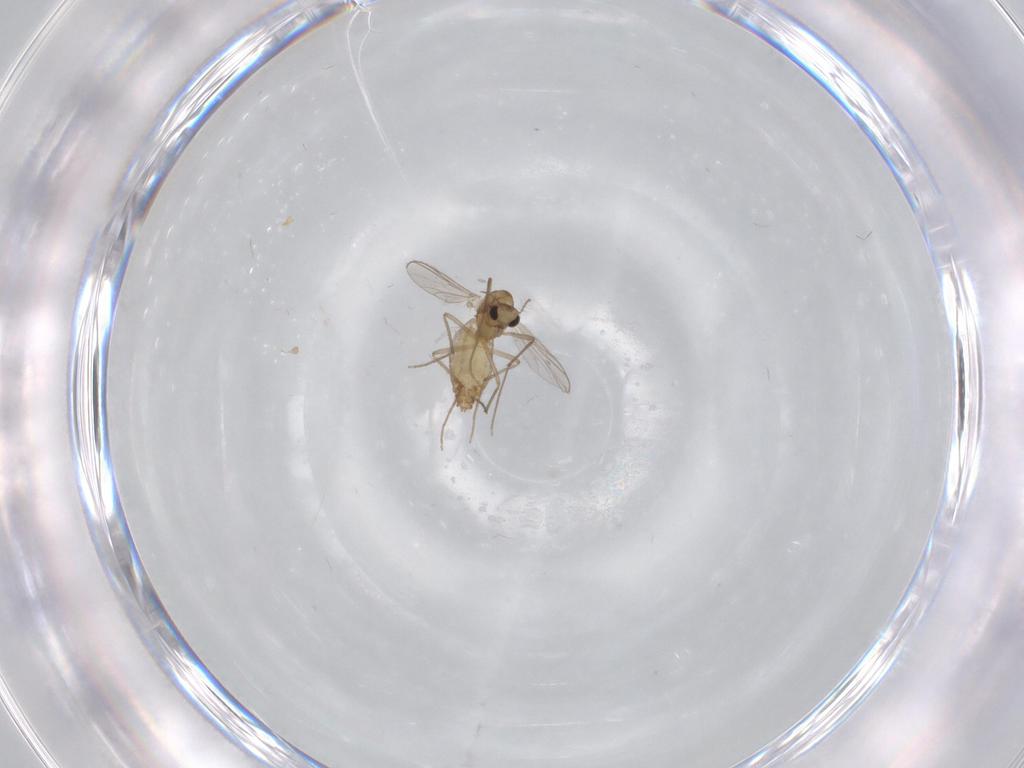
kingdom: Animalia
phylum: Arthropoda
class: Insecta
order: Diptera
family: Chironomidae
